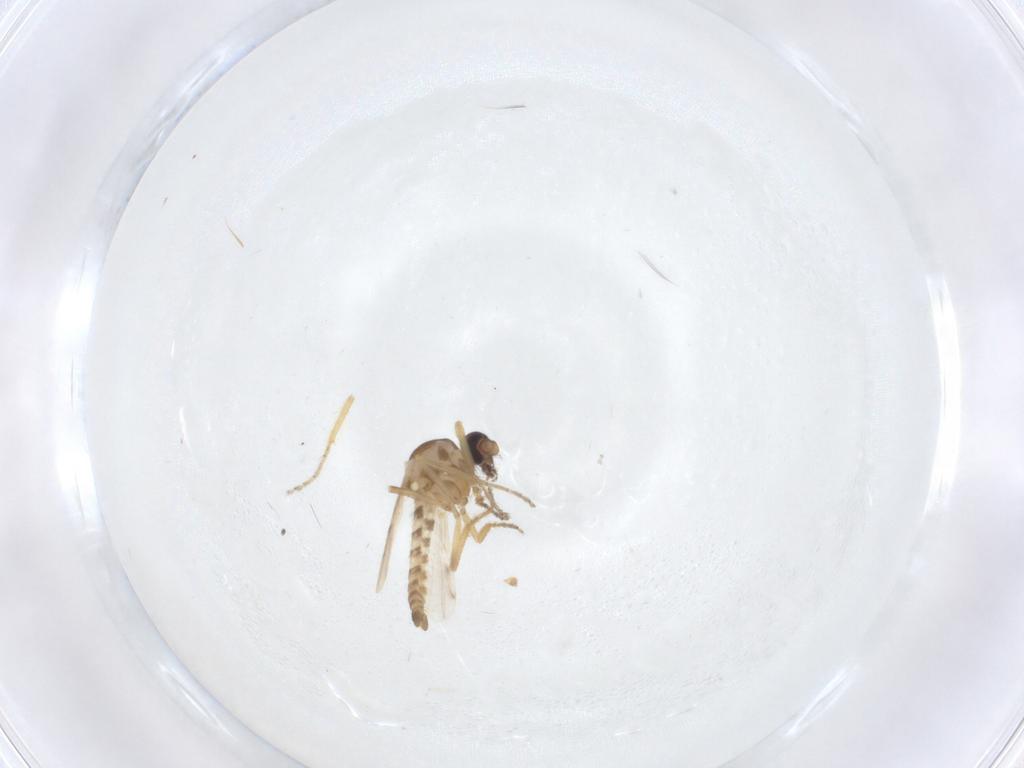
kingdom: Animalia
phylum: Arthropoda
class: Insecta
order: Diptera
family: Ceratopogonidae
